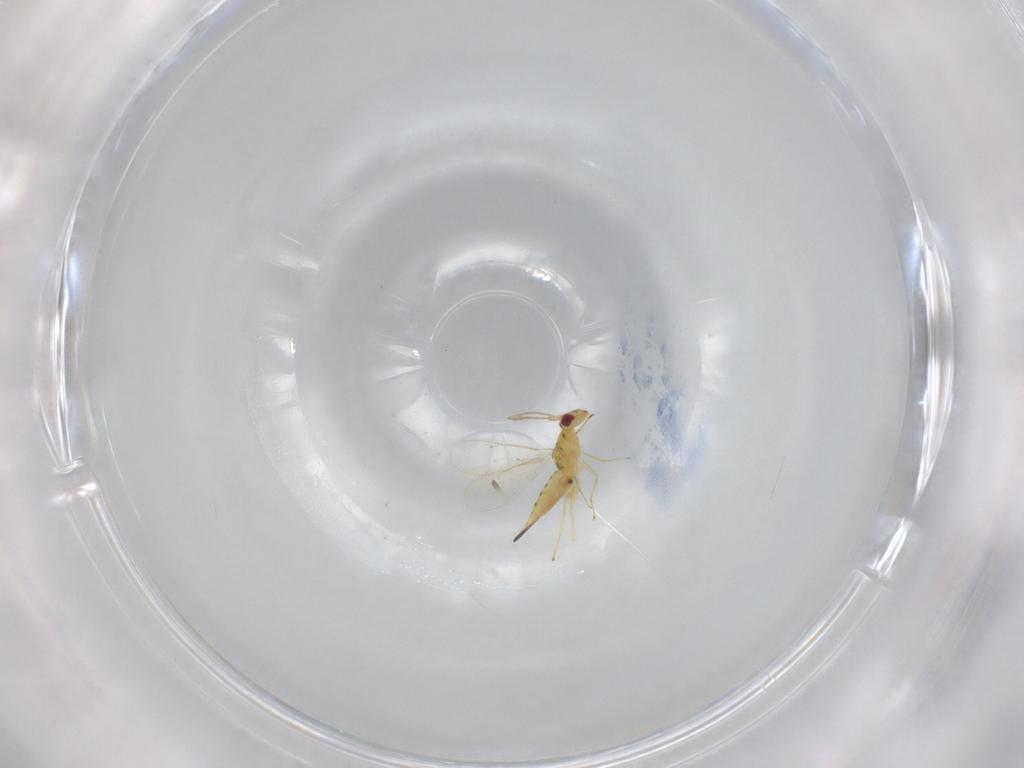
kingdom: Animalia
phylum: Arthropoda
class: Insecta
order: Hymenoptera
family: Eulophidae
